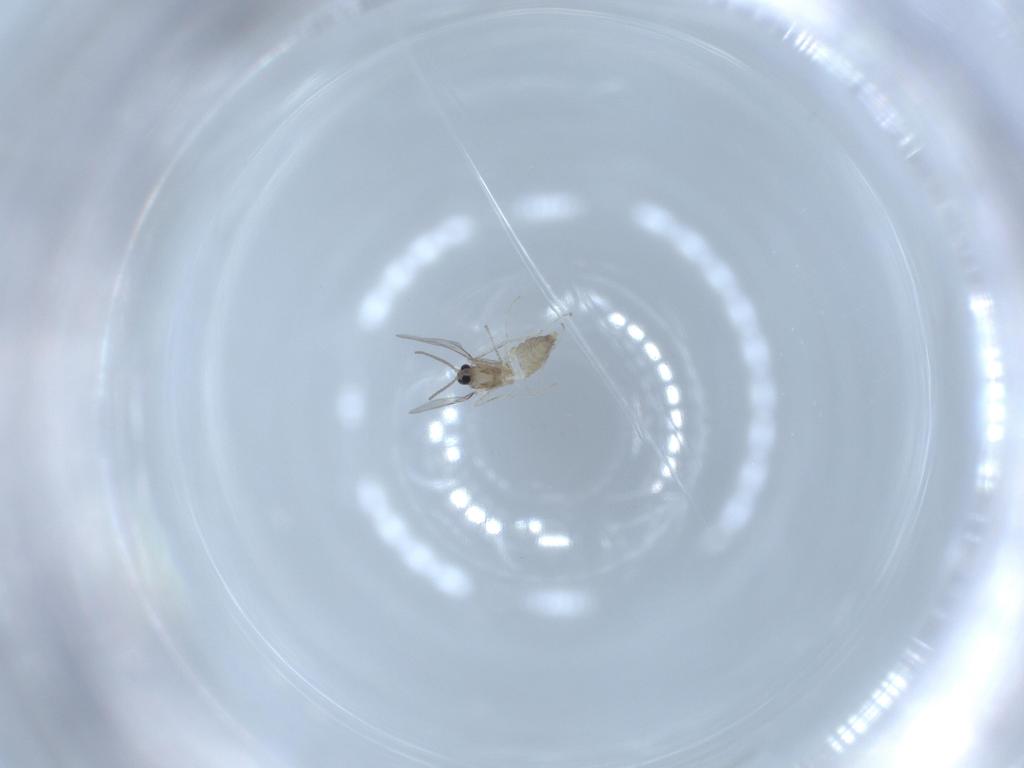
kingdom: Animalia
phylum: Arthropoda
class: Insecta
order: Diptera
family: Cecidomyiidae
